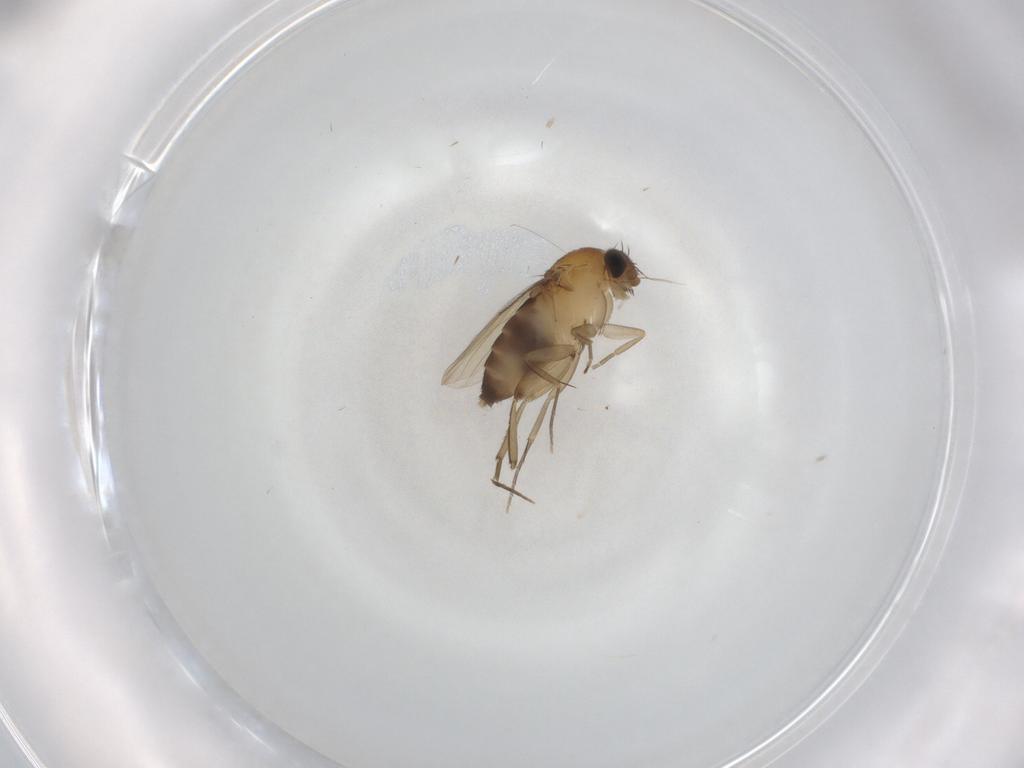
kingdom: Animalia
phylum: Arthropoda
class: Insecta
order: Diptera
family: Phoridae
